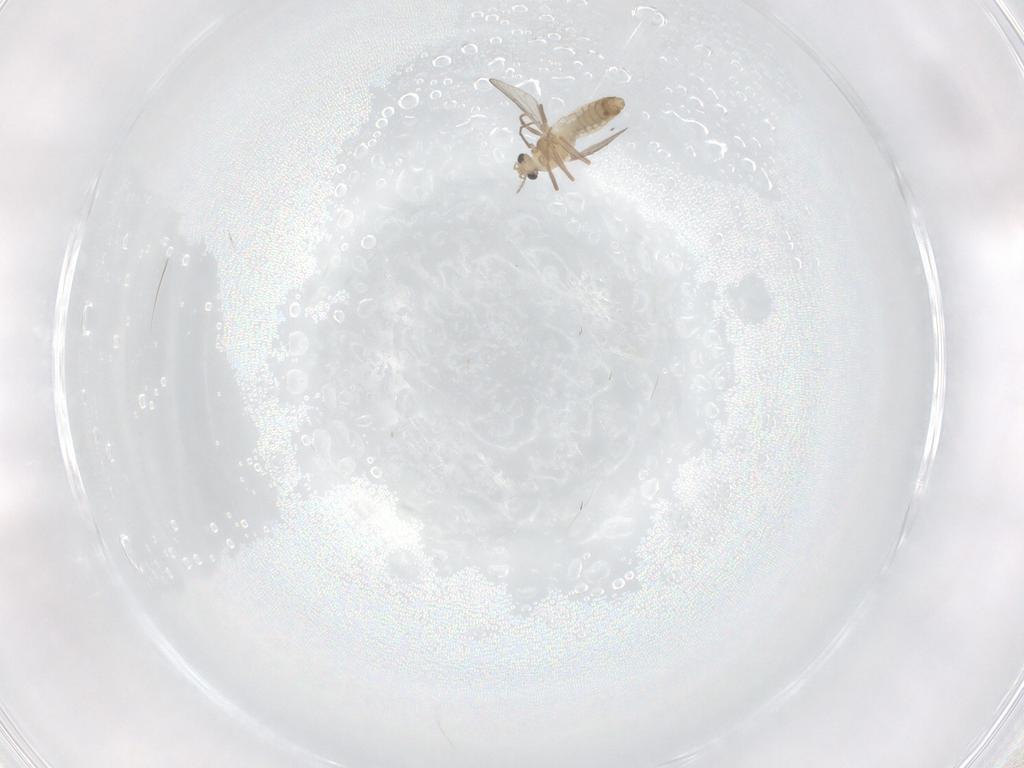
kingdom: Animalia
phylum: Arthropoda
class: Insecta
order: Diptera
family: Chironomidae
